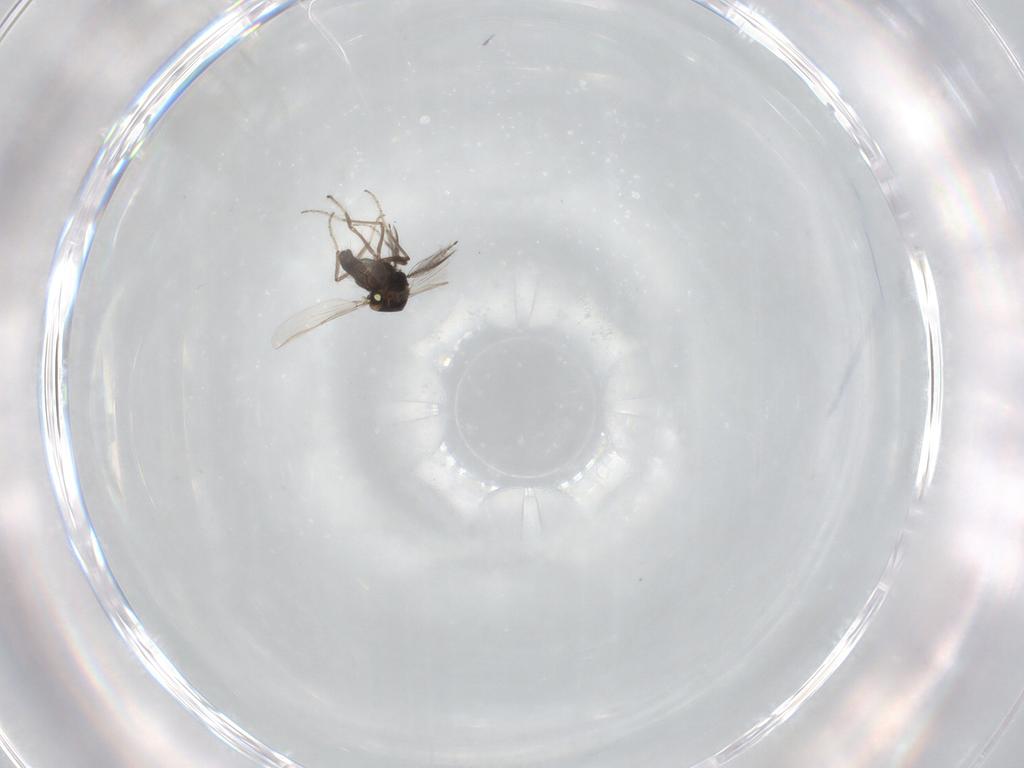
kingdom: Animalia
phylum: Arthropoda
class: Insecta
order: Diptera
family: Ceratopogonidae
